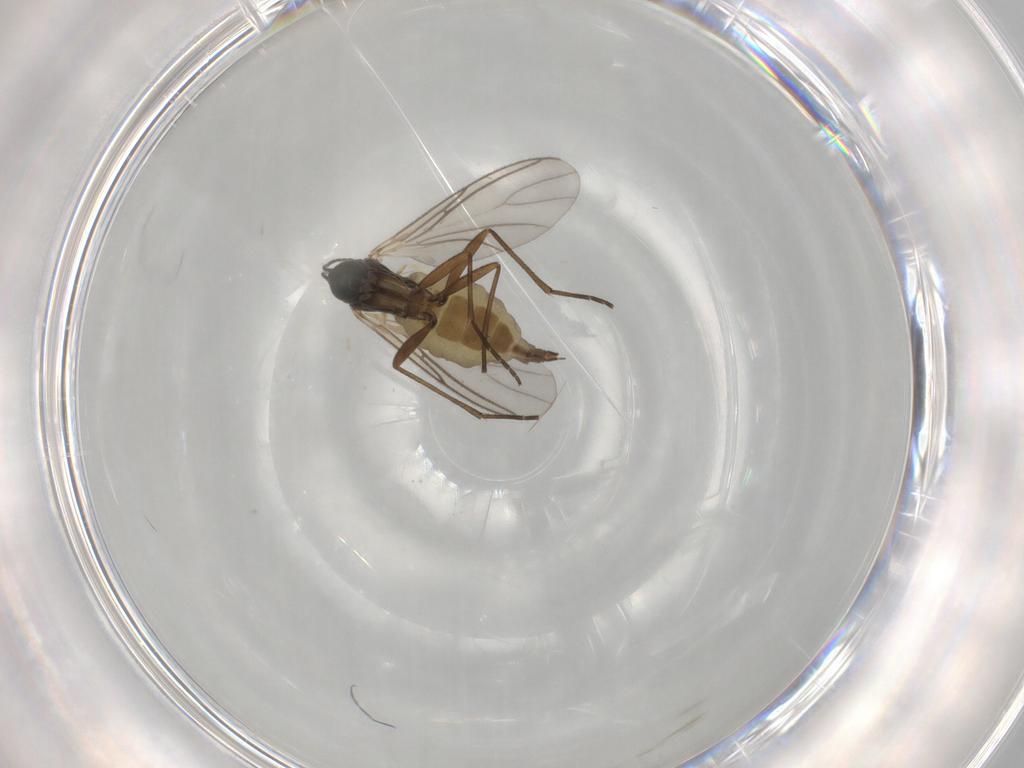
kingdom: Animalia
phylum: Arthropoda
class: Insecta
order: Diptera
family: Sciaridae
